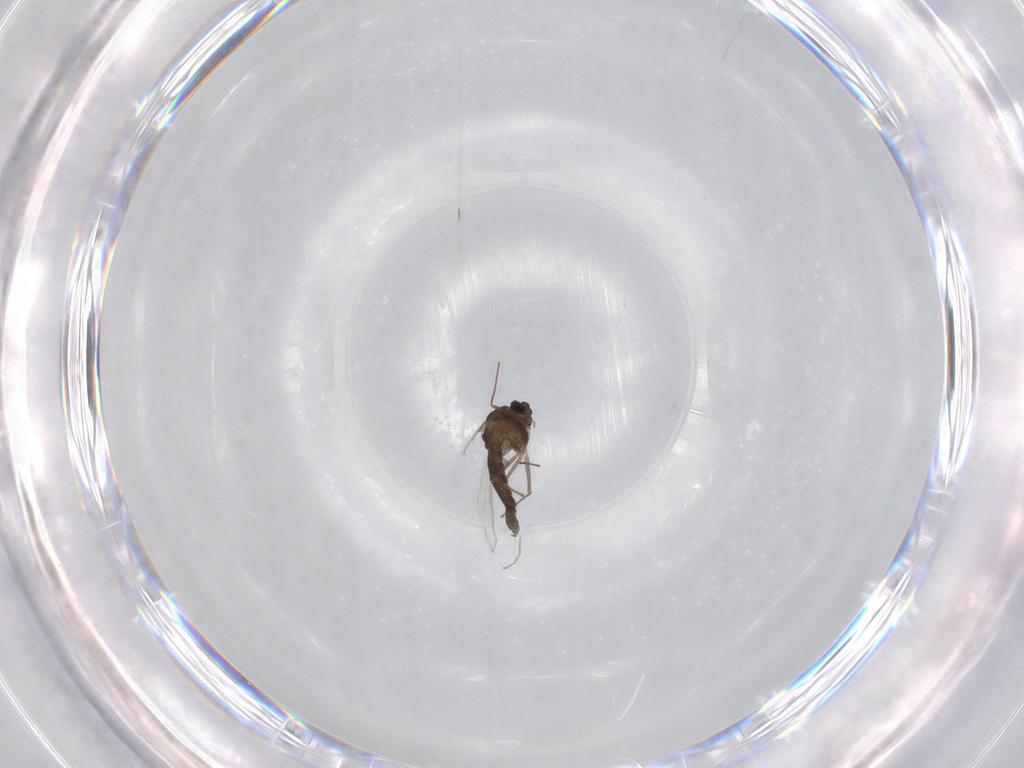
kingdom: Animalia
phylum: Arthropoda
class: Insecta
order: Diptera
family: Chironomidae
